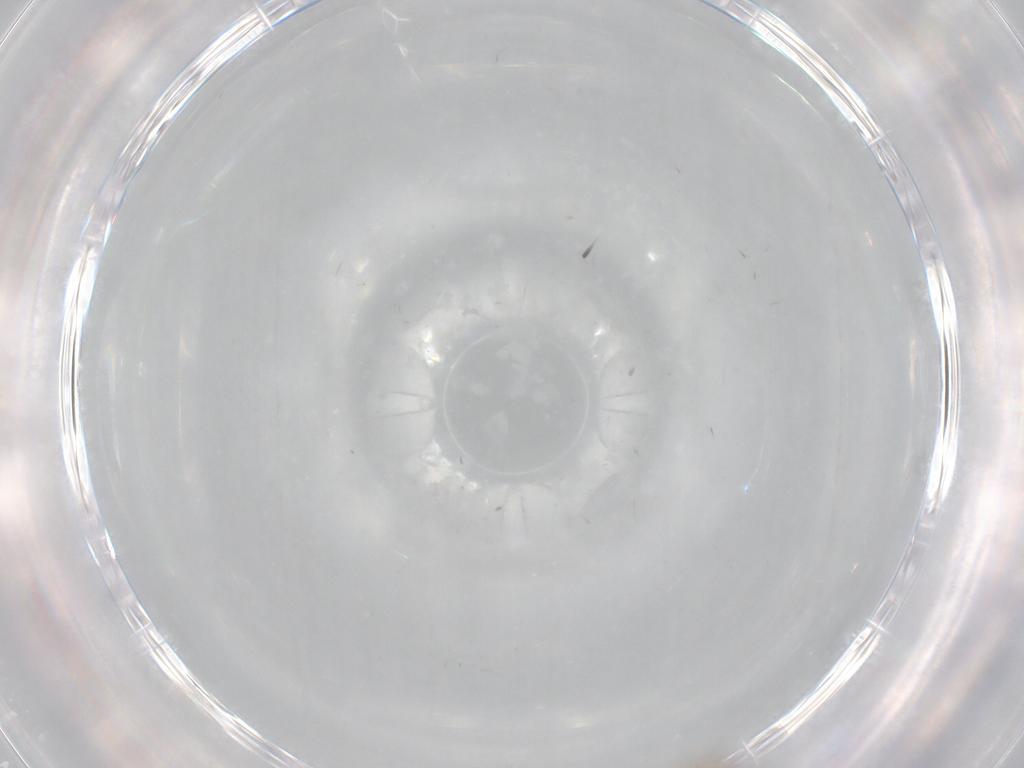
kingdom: Animalia
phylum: Arthropoda
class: Insecta
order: Diptera
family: Cecidomyiidae
